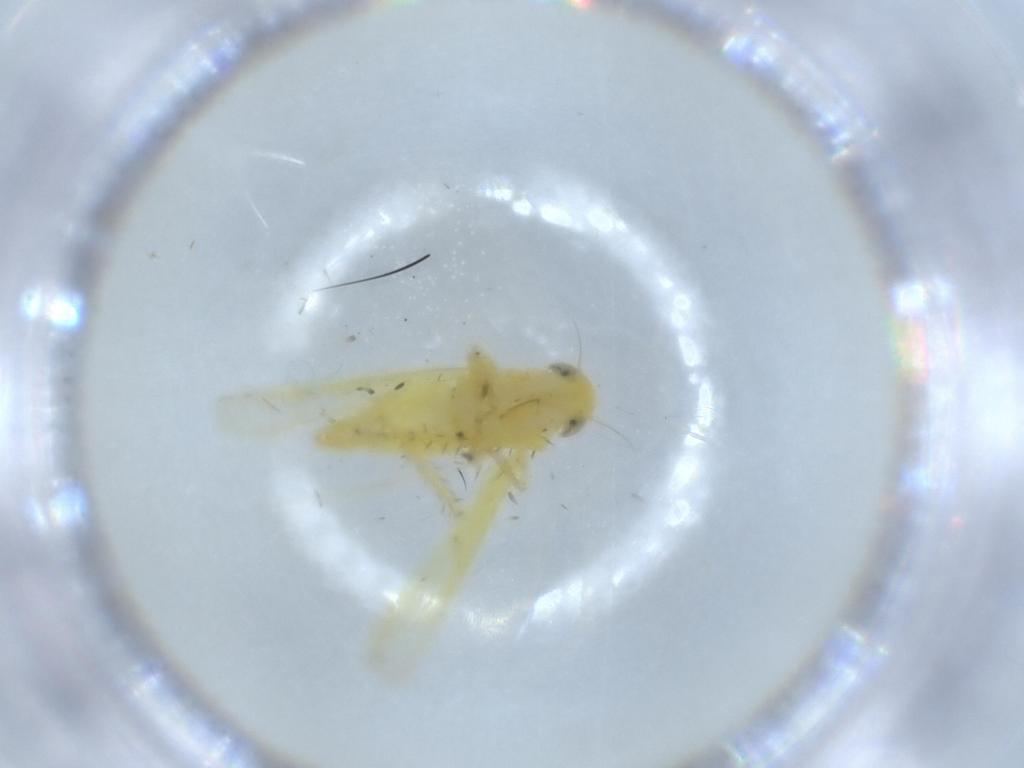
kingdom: Animalia
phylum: Arthropoda
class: Insecta
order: Hemiptera
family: Cicadellidae
